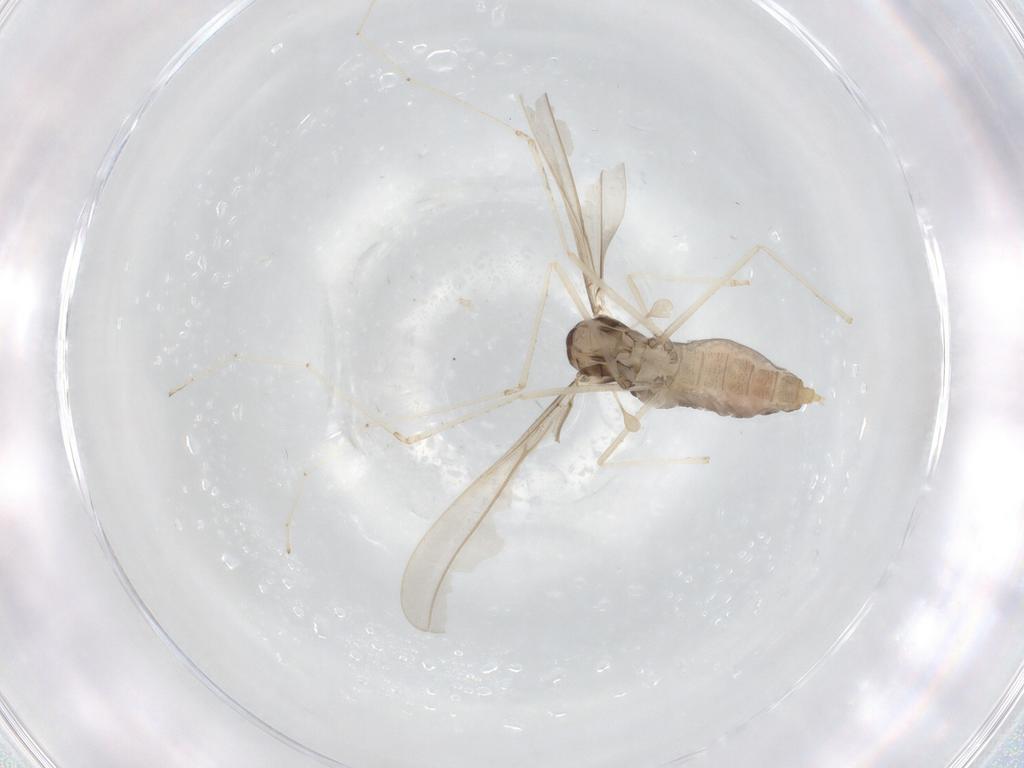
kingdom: Animalia
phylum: Arthropoda
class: Insecta
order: Diptera
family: Cecidomyiidae
